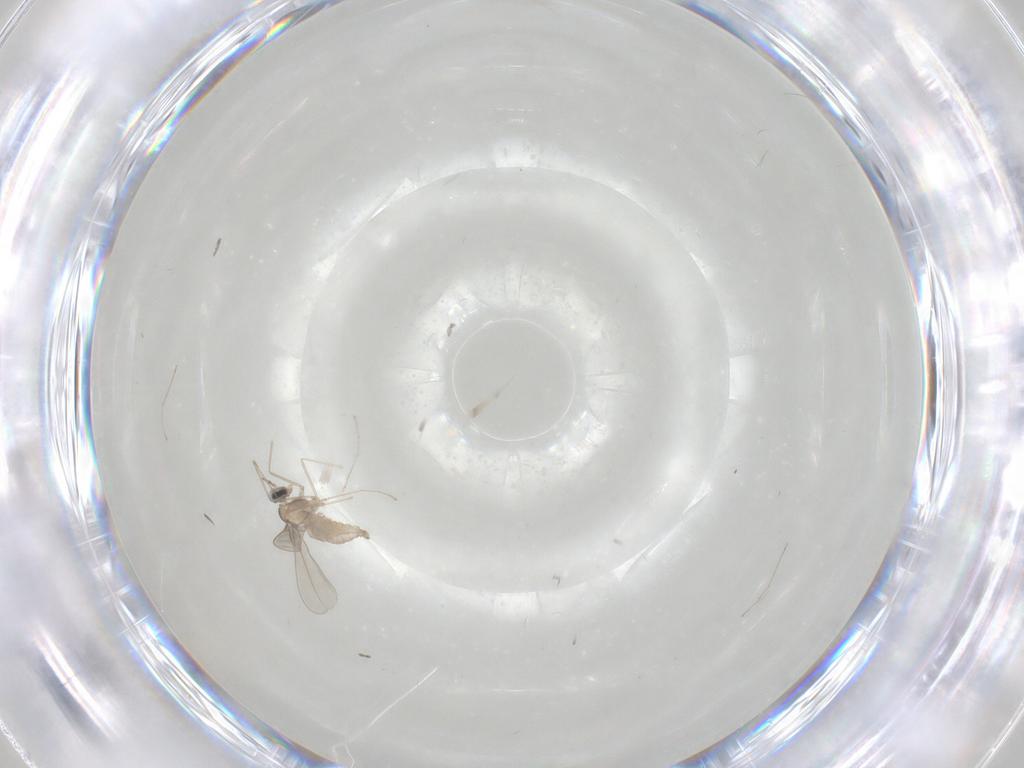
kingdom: Animalia
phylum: Arthropoda
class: Insecta
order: Diptera
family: Cecidomyiidae
